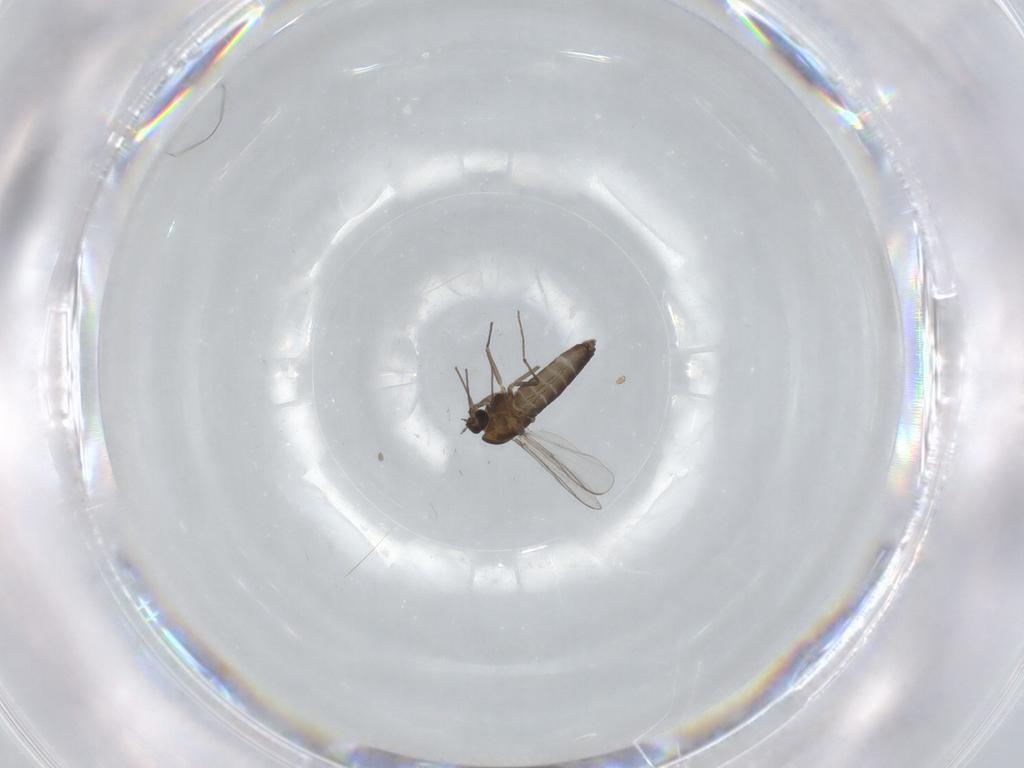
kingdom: Animalia
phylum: Arthropoda
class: Insecta
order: Diptera
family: Chironomidae
